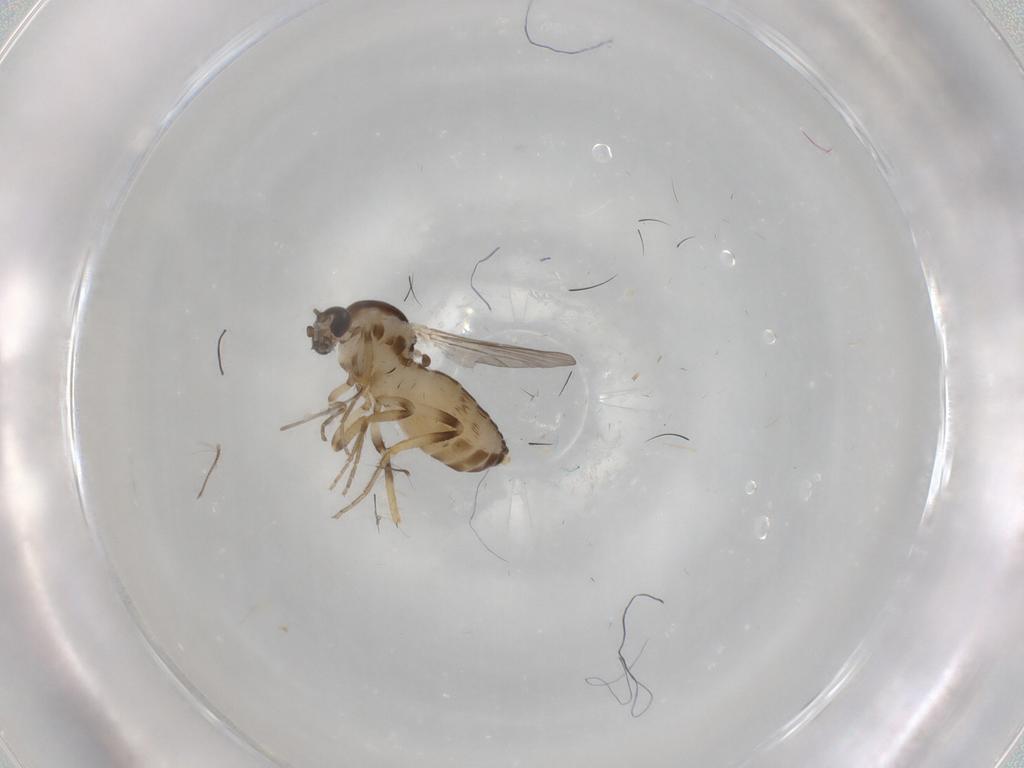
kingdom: Animalia
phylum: Arthropoda
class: Insecta
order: Diptera
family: Ceratopogonidae
